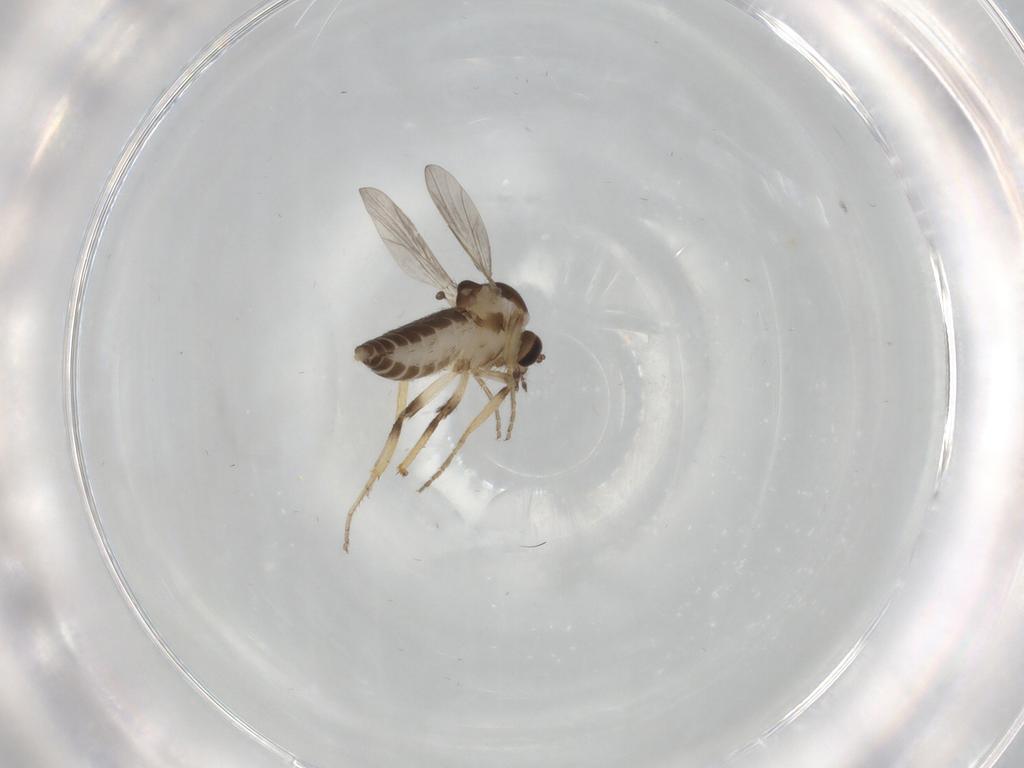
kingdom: Animalia
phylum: Arthropoda
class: Insecta
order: Diptera
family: Ceratopogonidae
